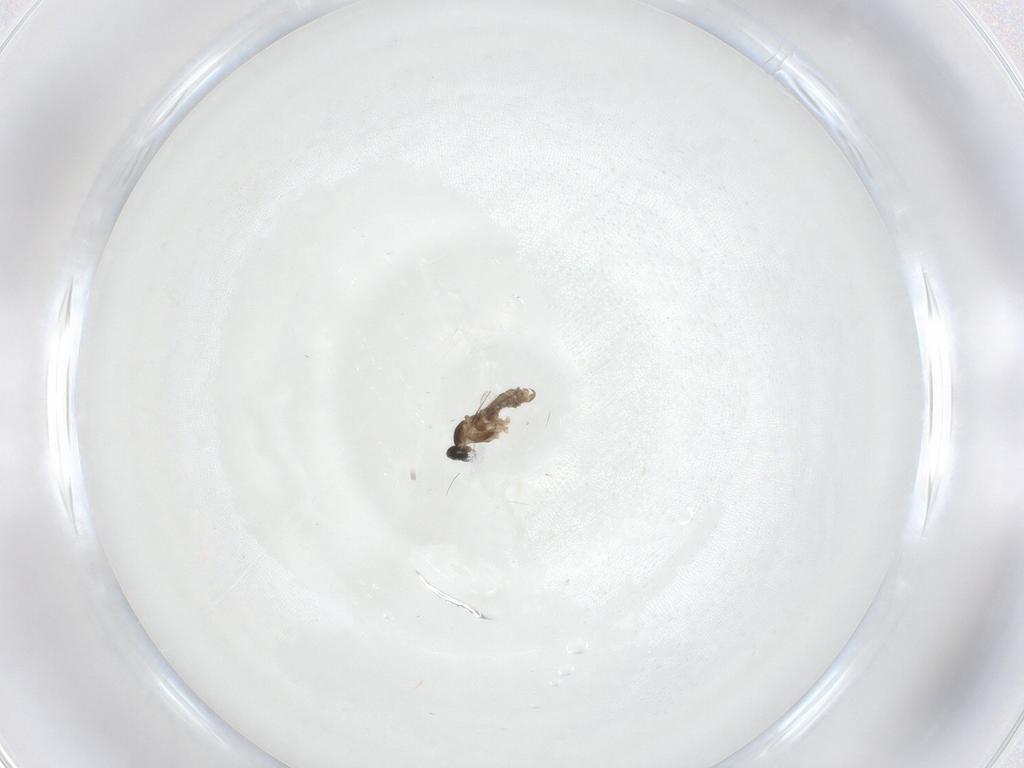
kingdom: Animalia
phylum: Arthropoda
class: Insecta
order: Diptera
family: Cecidomyiidae
